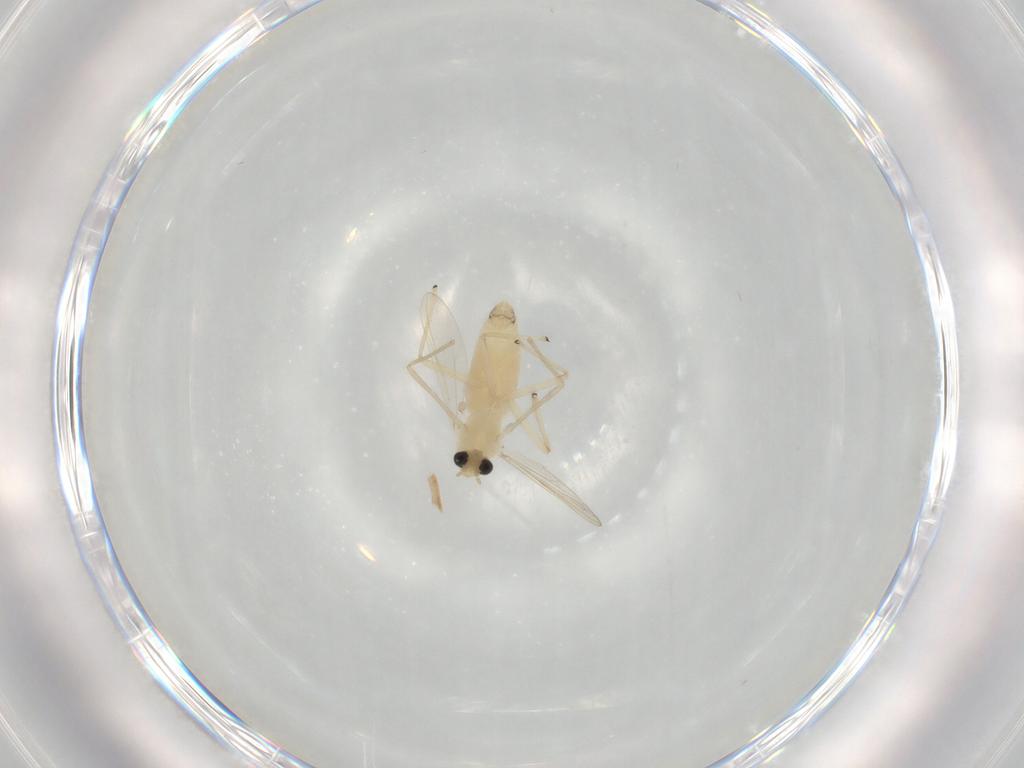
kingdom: Animalia
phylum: Arthropoda
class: Insecta
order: Diptera
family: Chironomidae
